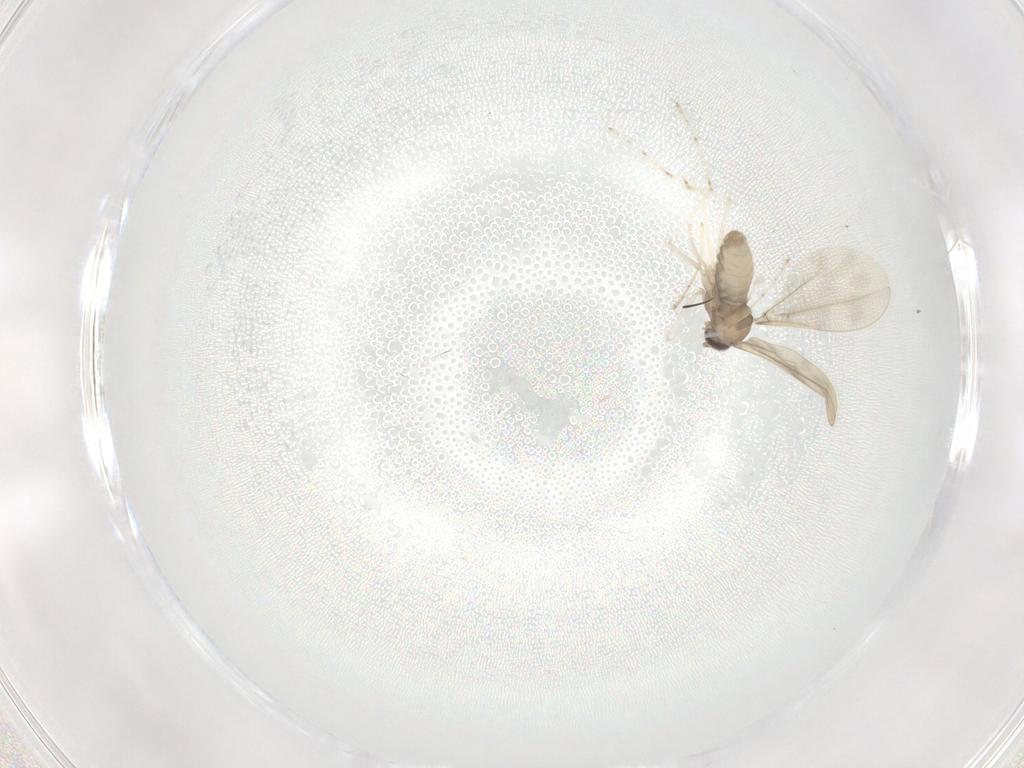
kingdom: Animalia
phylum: Arthropoda
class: Insecta
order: Diptera
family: Cecidomyiidae
